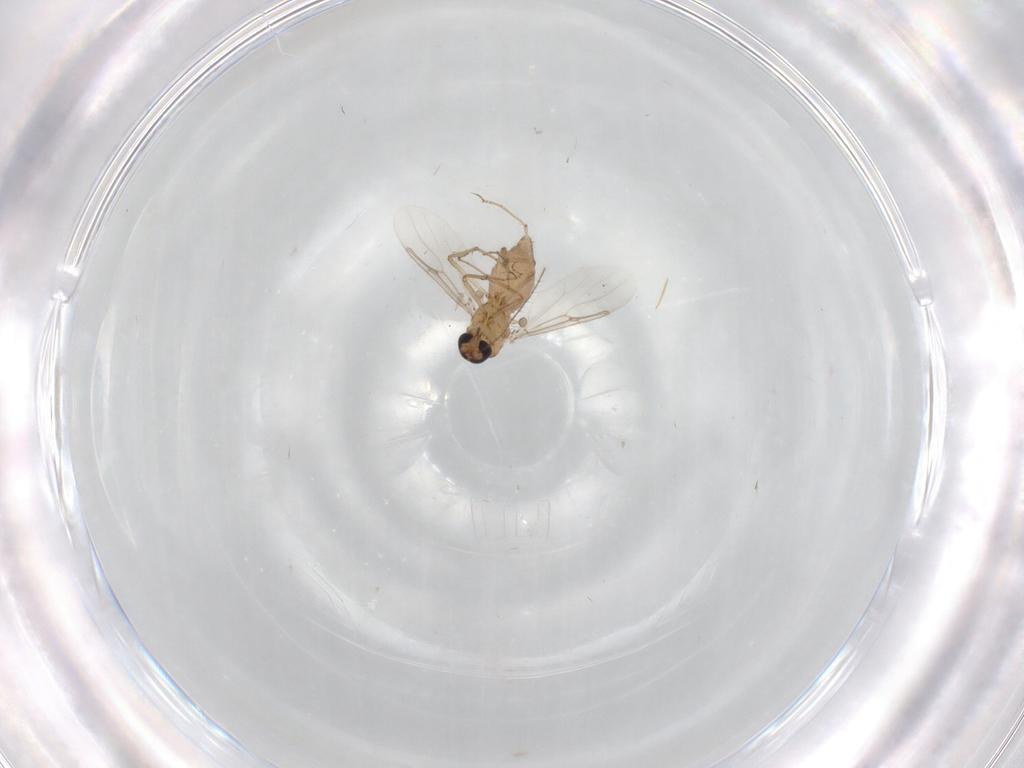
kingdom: Animalia
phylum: Arthropoda
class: Insecta
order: Diptera
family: Ceratopogonidae
